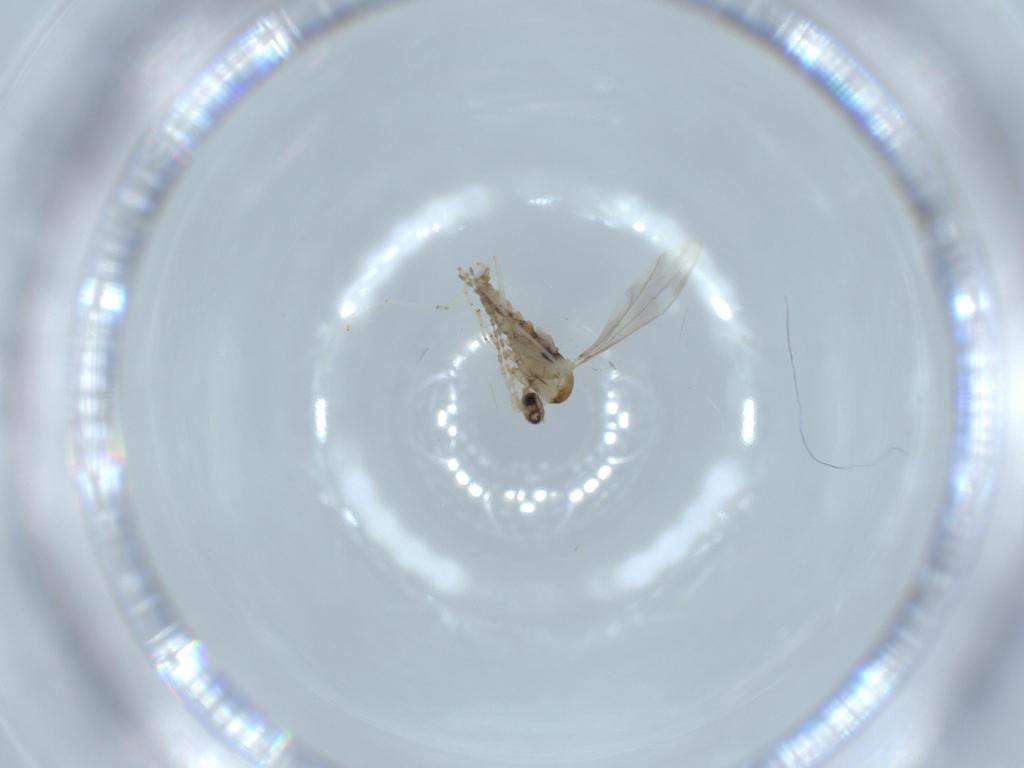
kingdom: Animalia
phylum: Arthropoda
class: Insecta
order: Diptera
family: Cecidomyiidae
